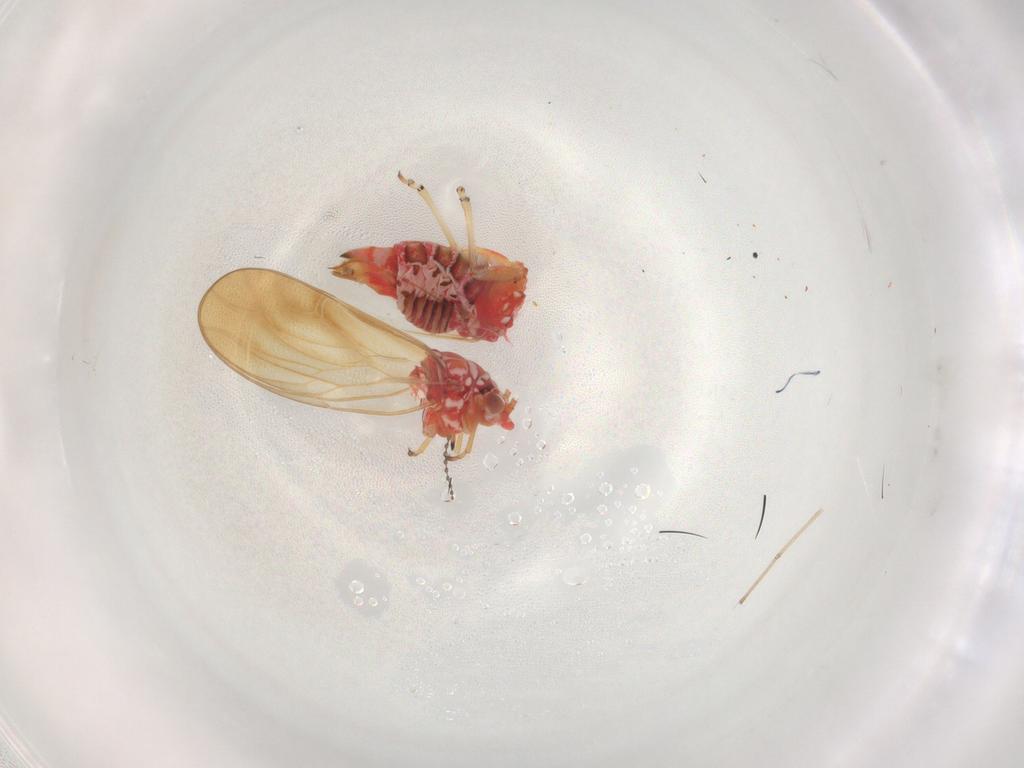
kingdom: Animalia
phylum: Arthropoda
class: Insecta
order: Hemiptera
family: Psyllidae
